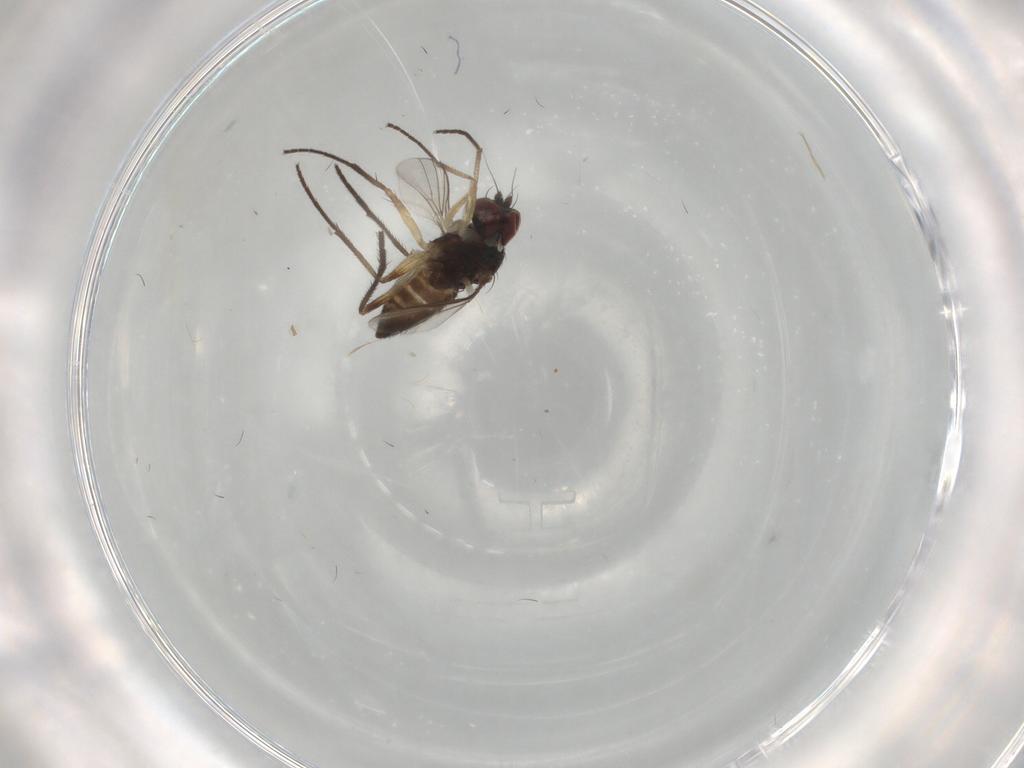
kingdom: Animalia
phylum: Arthropoda
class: Insecta
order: Diptera
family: Dolichopodidae
